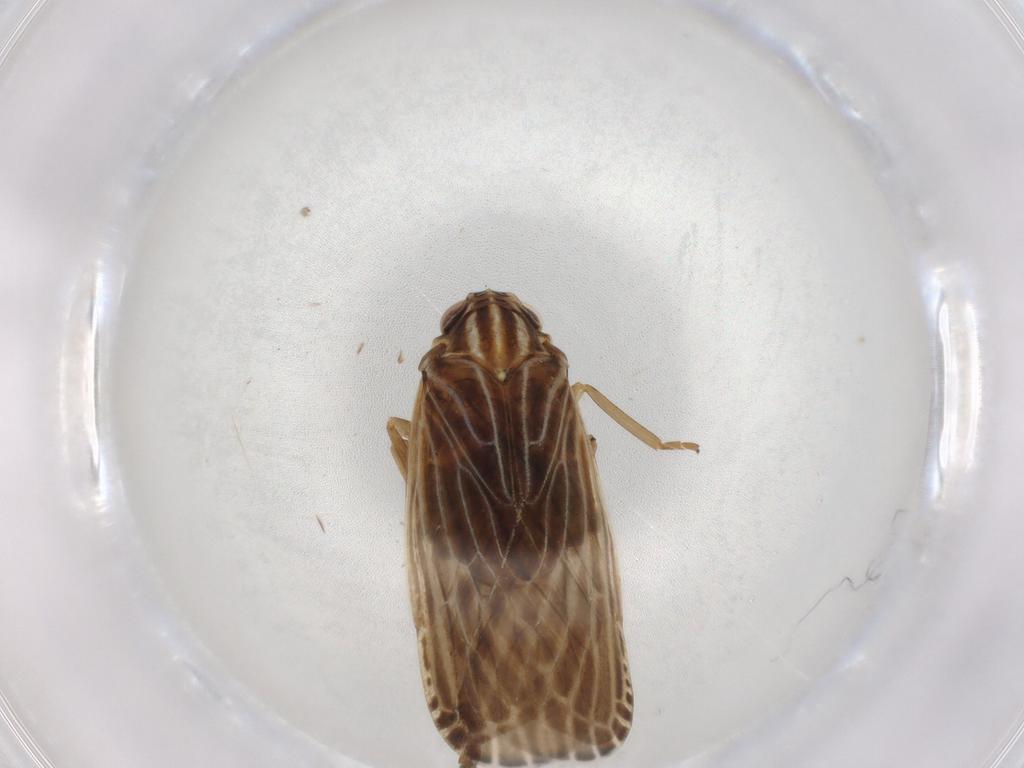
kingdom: Animalia
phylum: Arthropoda
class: Insecta
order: Hemiptera
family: Cicadellidae
